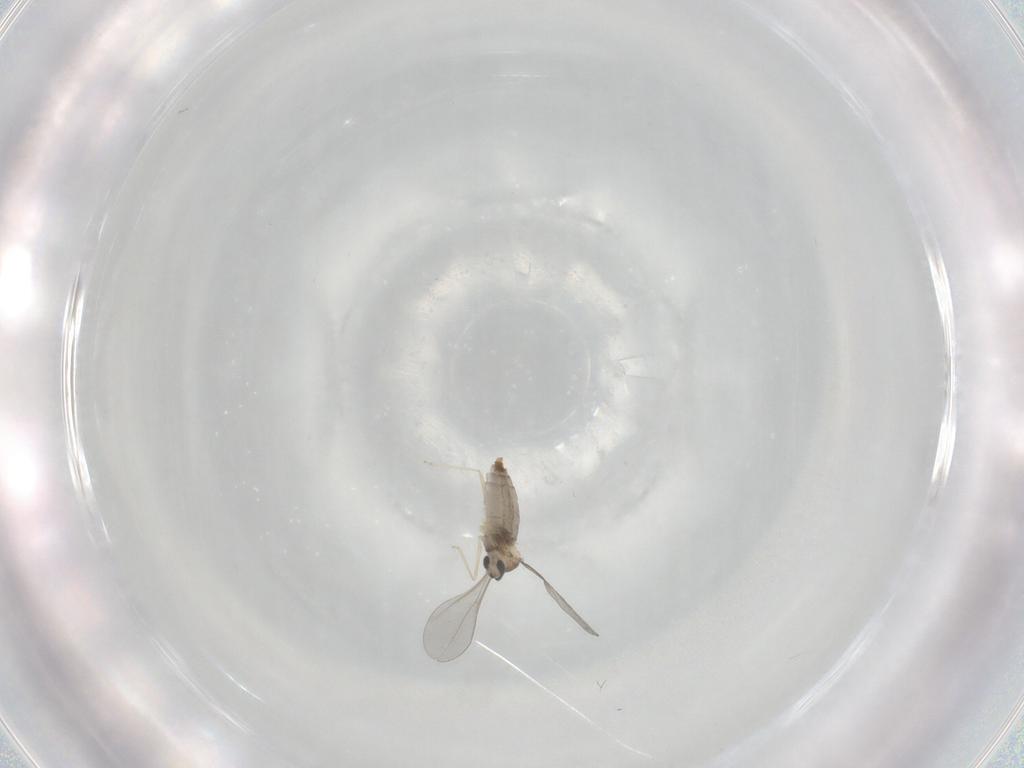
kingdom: Animalia
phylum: Arthropoda
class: Insecta
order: Diptera
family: Cecidomyiidae
